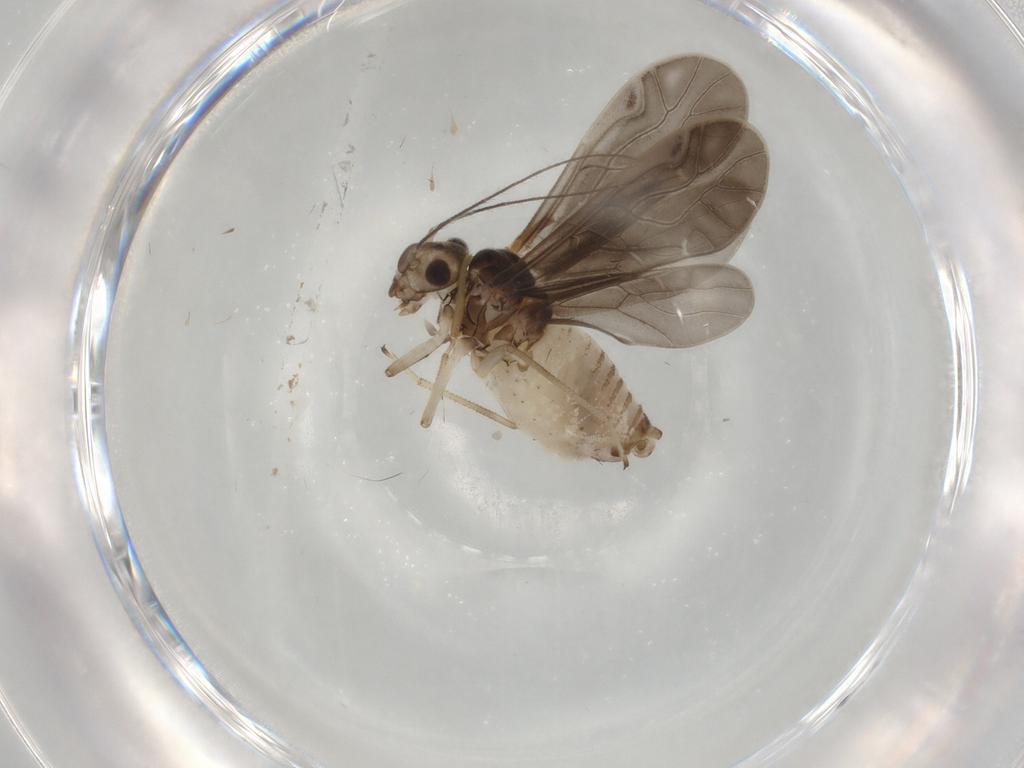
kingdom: Animalia
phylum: Arthropoda
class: Insecta
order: Psocodea
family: Caeciliusidae
